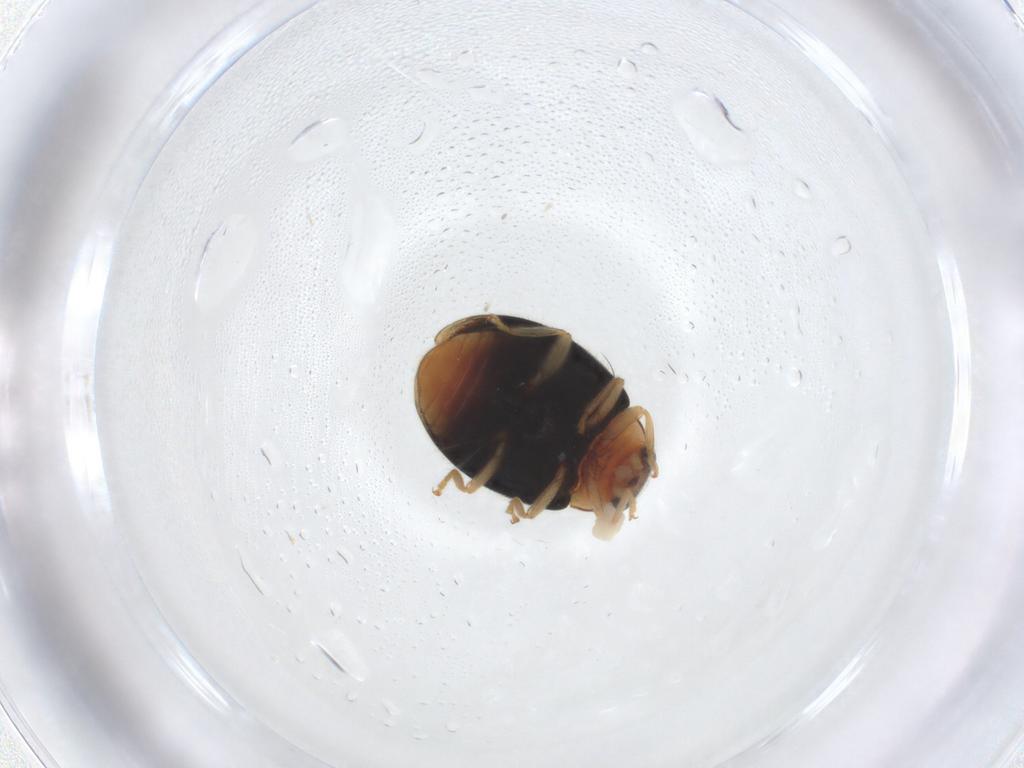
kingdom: Animalia
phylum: Arthropoda
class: Insecta
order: Coleoptera
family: Coccinellidae
